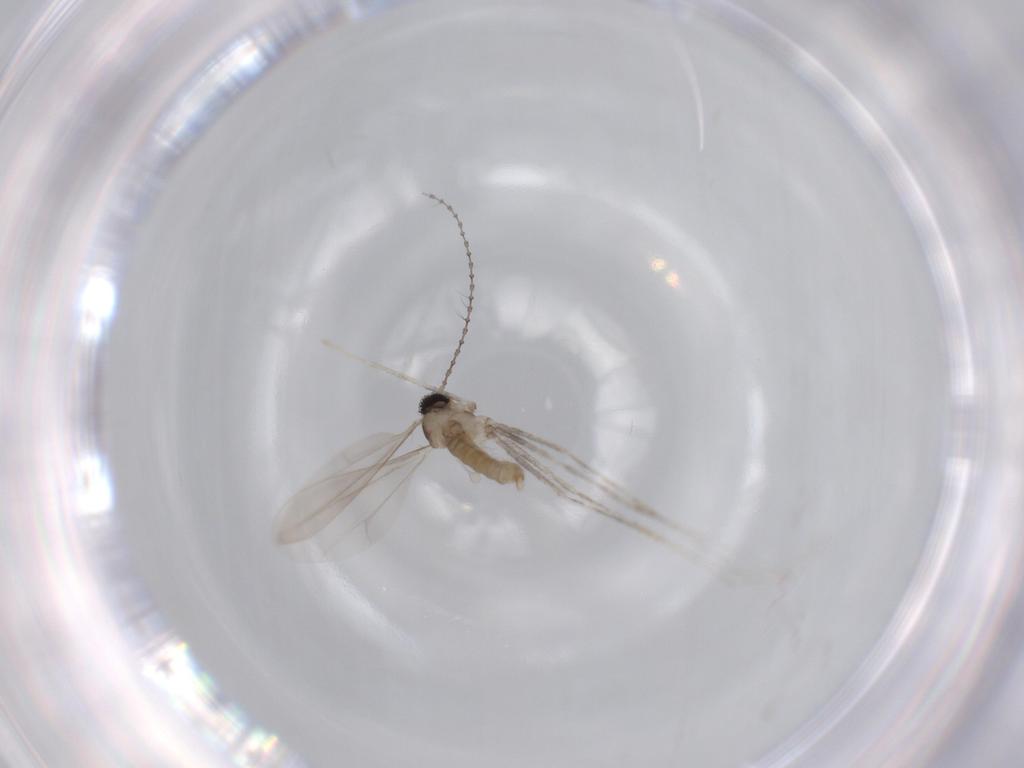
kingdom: Animalia
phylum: Arthropoda
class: Insecta
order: Diptera
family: Cecidomyiidae
